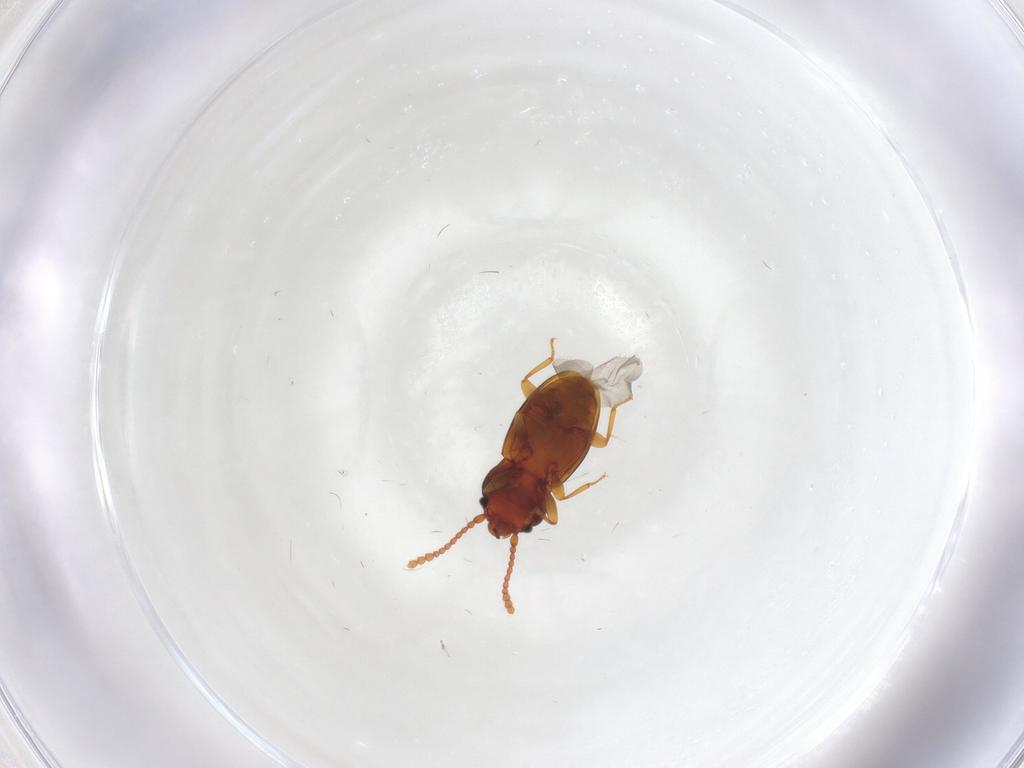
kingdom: Animalia
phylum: Arthropoda
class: Insecta
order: Coleoptera
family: Laemophloeidae
